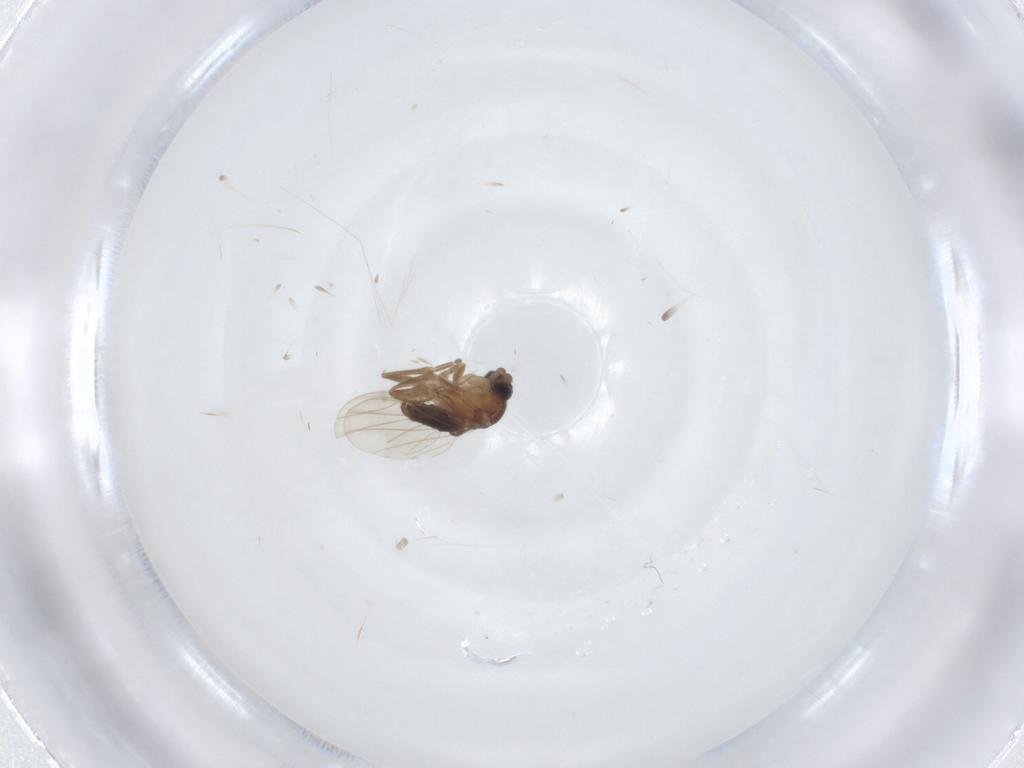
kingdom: Animalia
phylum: Arthropoda
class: Insecta
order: Diptera
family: Phoridae
